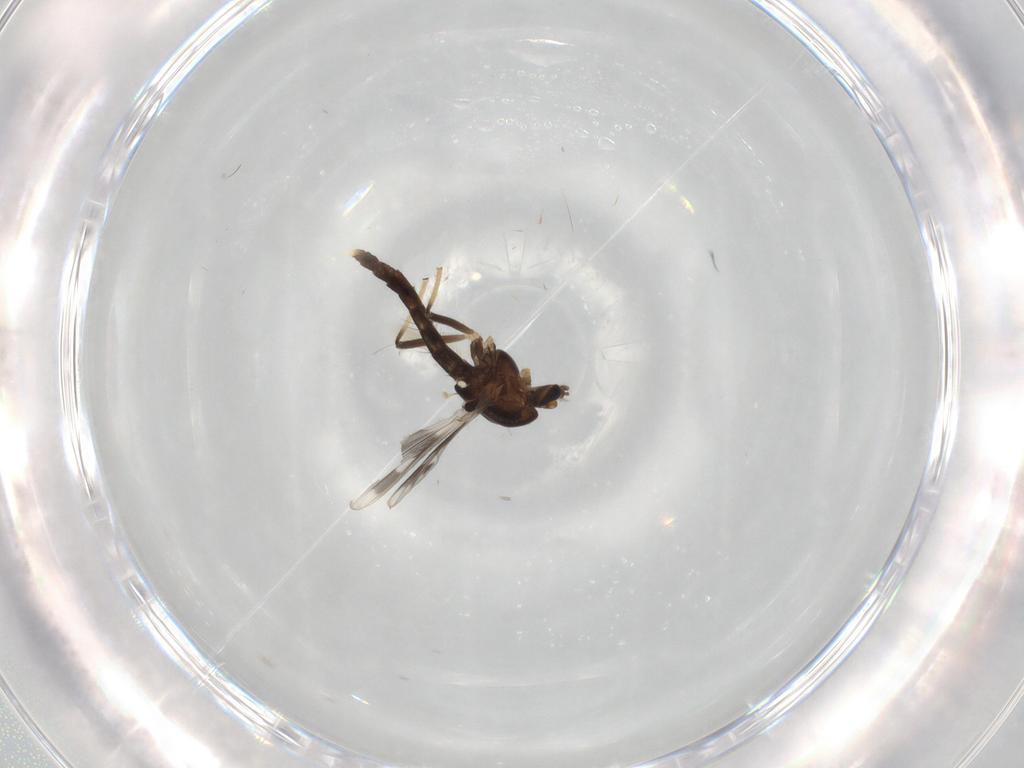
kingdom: Animalia
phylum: Arthropoda
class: Insecta
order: Diptera
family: Chironomidae
